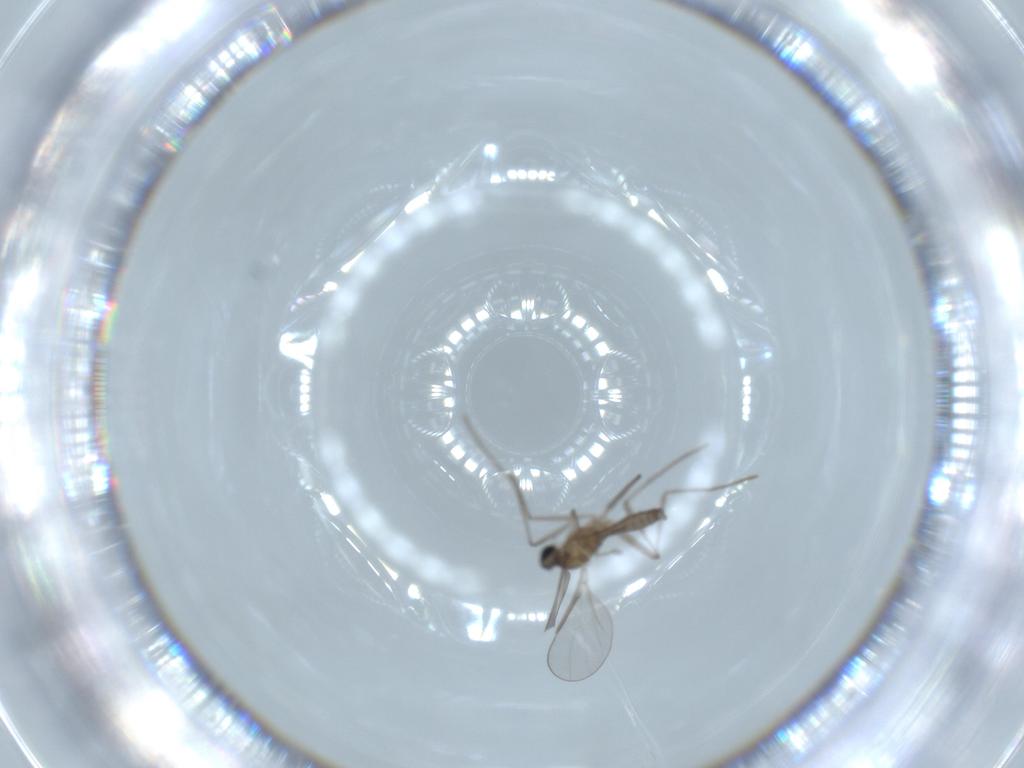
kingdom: Animalia
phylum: Arthropoda
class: Insecta
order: Diptera
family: Cecidomyiidae
